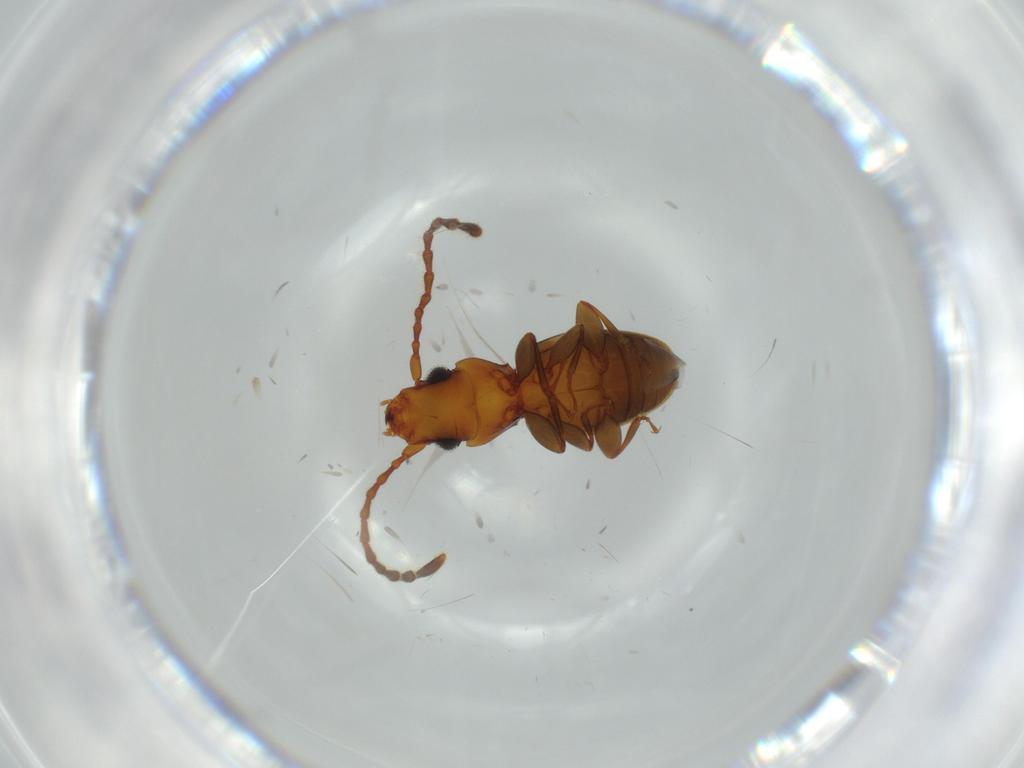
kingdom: Animalia
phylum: Arthropoda
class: Insecta
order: Coleoptera
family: Laemophloeidae
